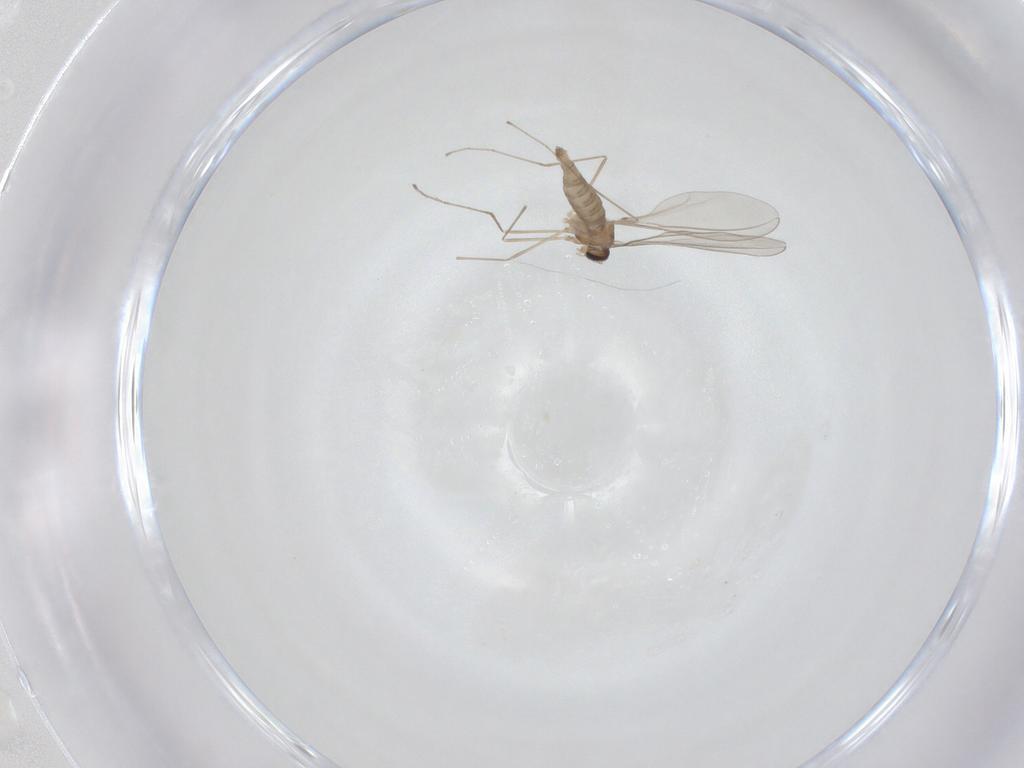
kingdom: Animalia
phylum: Arthropoda
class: Insecta
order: Diptera
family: Cecidomyiidae
